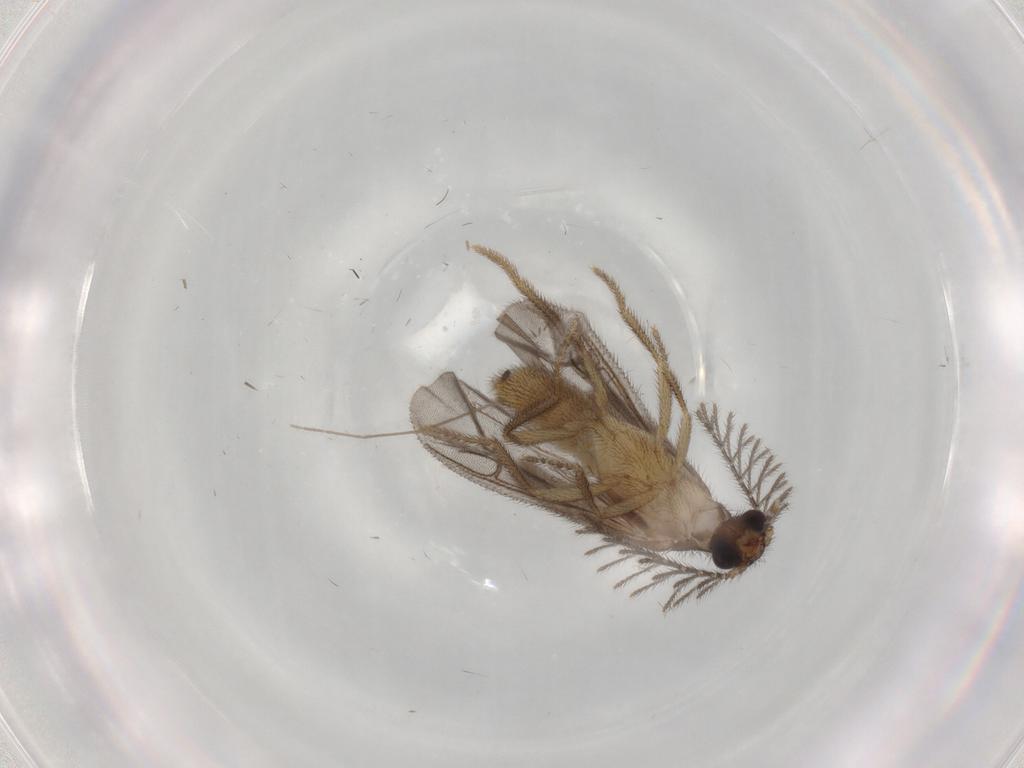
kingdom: Animalia
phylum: Arthropoda
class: Insecta
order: Coleoptera
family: Phengodidae
